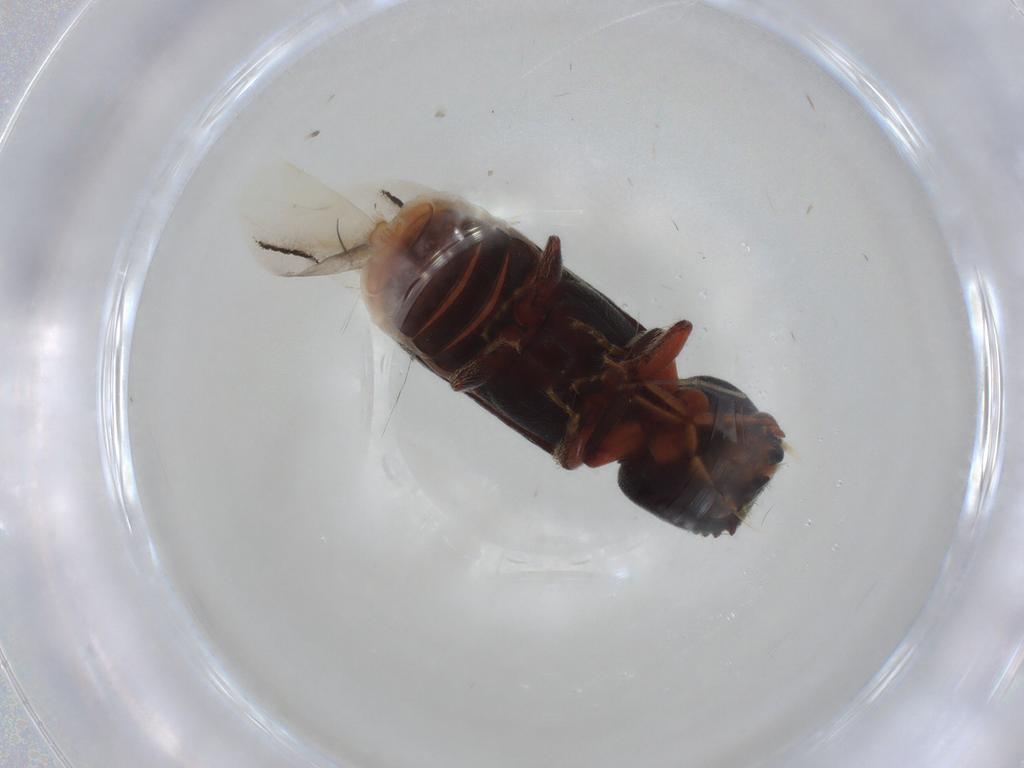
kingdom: Animalia
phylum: Arthropoda
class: Insecta
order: Coleoptera
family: Bostrichidae
